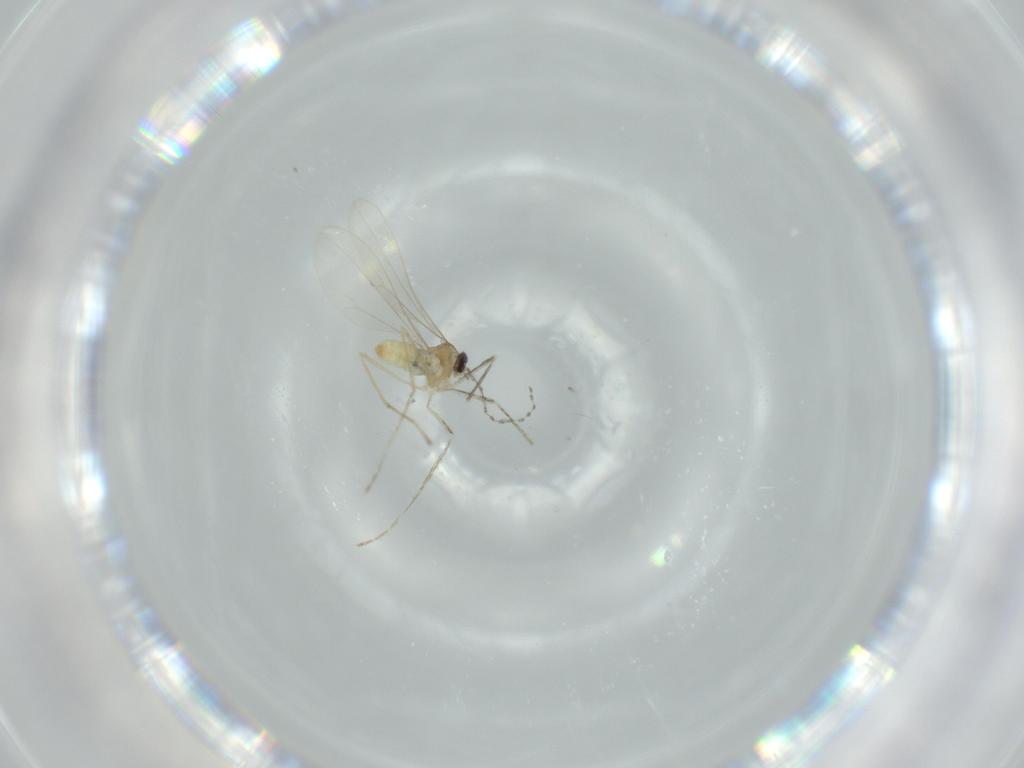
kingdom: Animalia
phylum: Arthropoda
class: Insecta
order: Diptera
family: Cecidomyiidae
